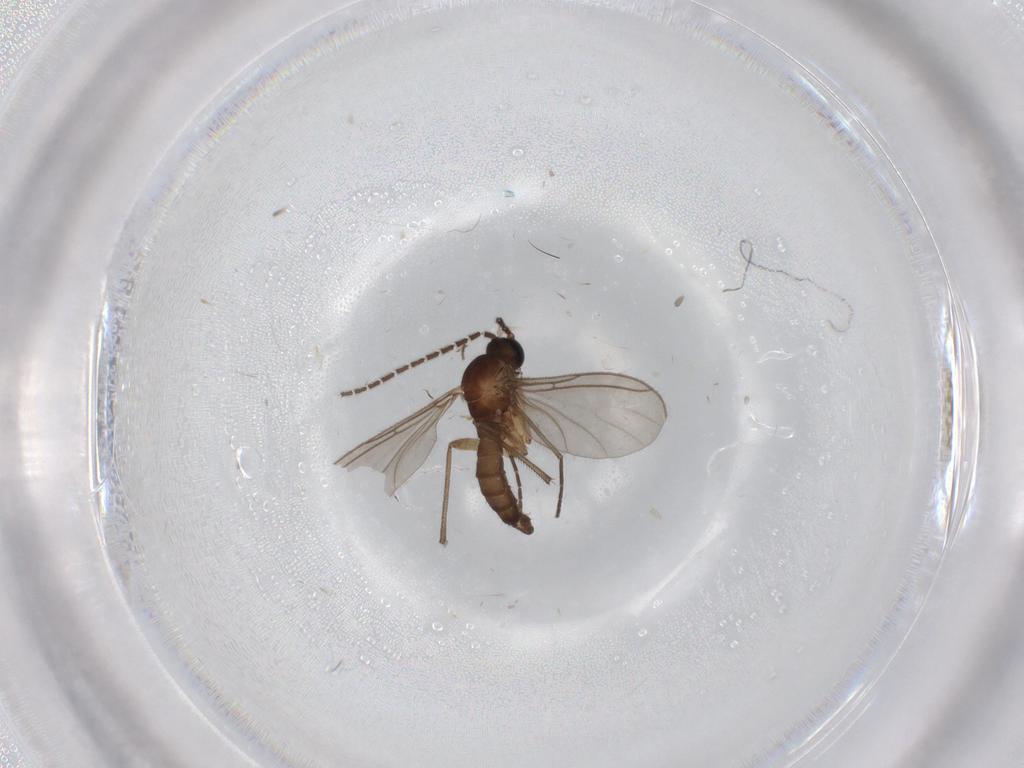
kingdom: Animalia
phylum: Arthropoda
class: Insecta
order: Diptera
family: Sciaridae
